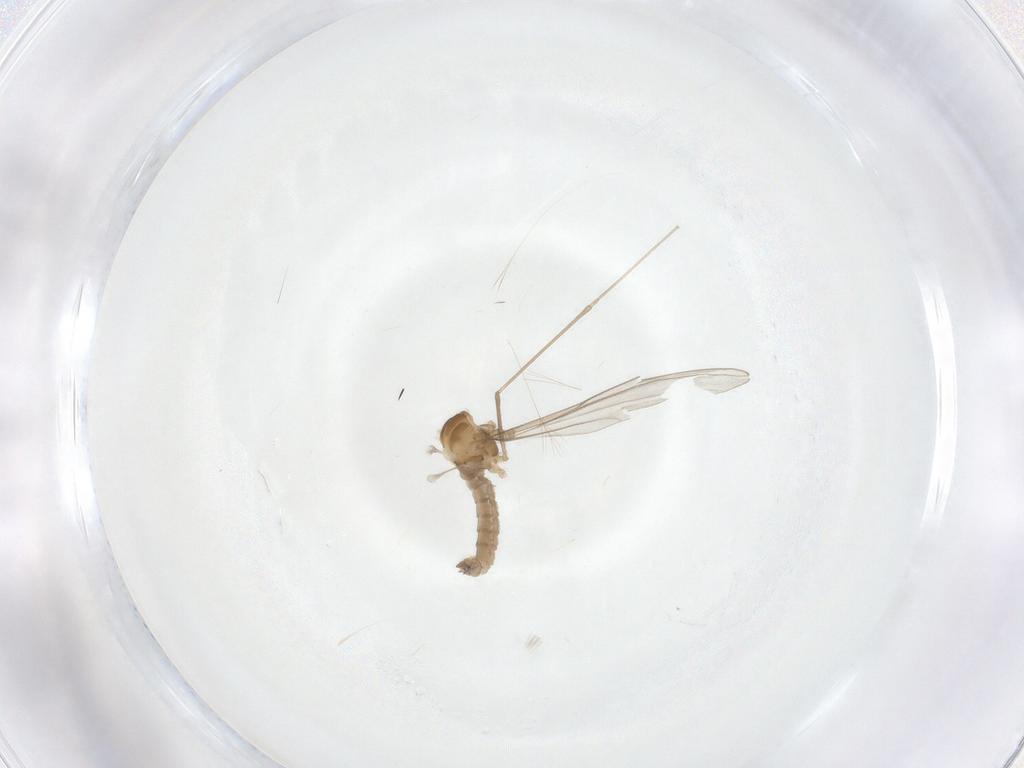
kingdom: Animalia
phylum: Arthropoda
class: Insecta
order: Diptera
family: Cecidomyiidae
